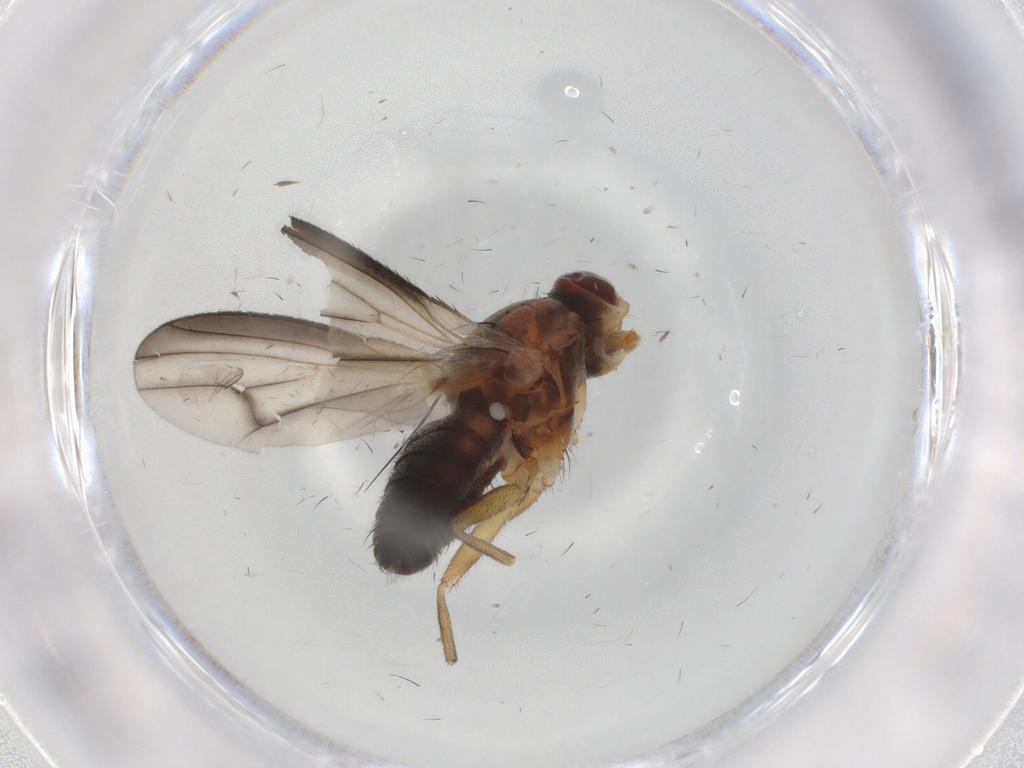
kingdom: Animalia
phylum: Arthropoda
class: Insecta
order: Diptera
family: Heleomyzidae
